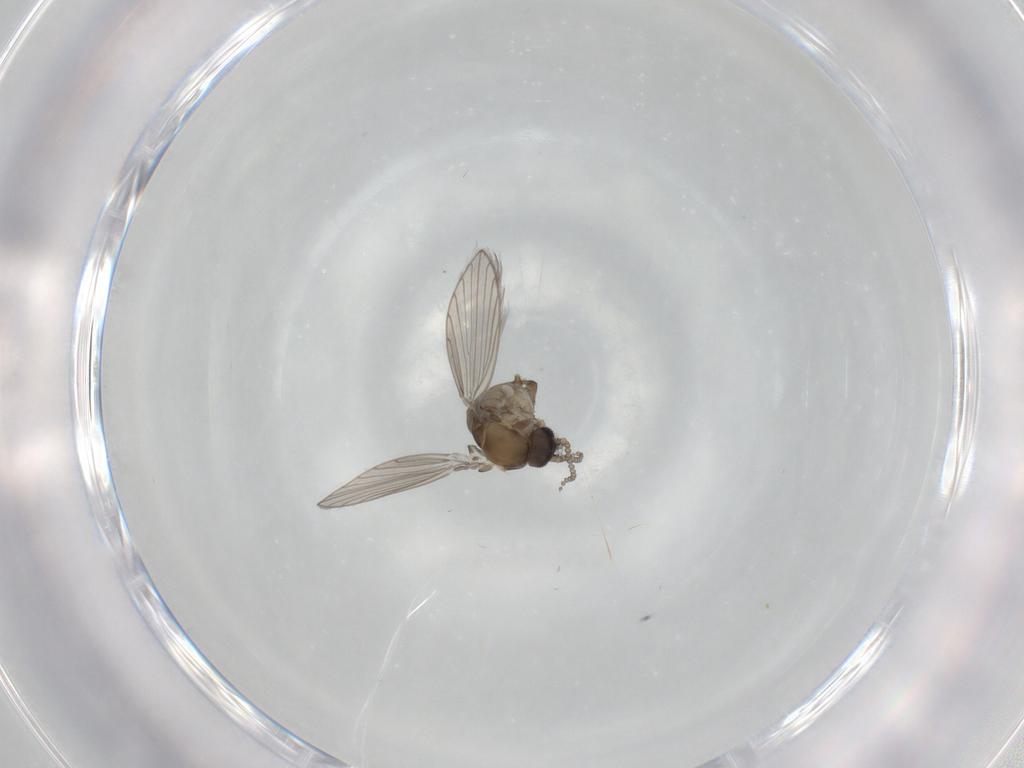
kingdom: Animalia
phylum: Arthropoda
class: Insecta
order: Diptera
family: Psychodidae
